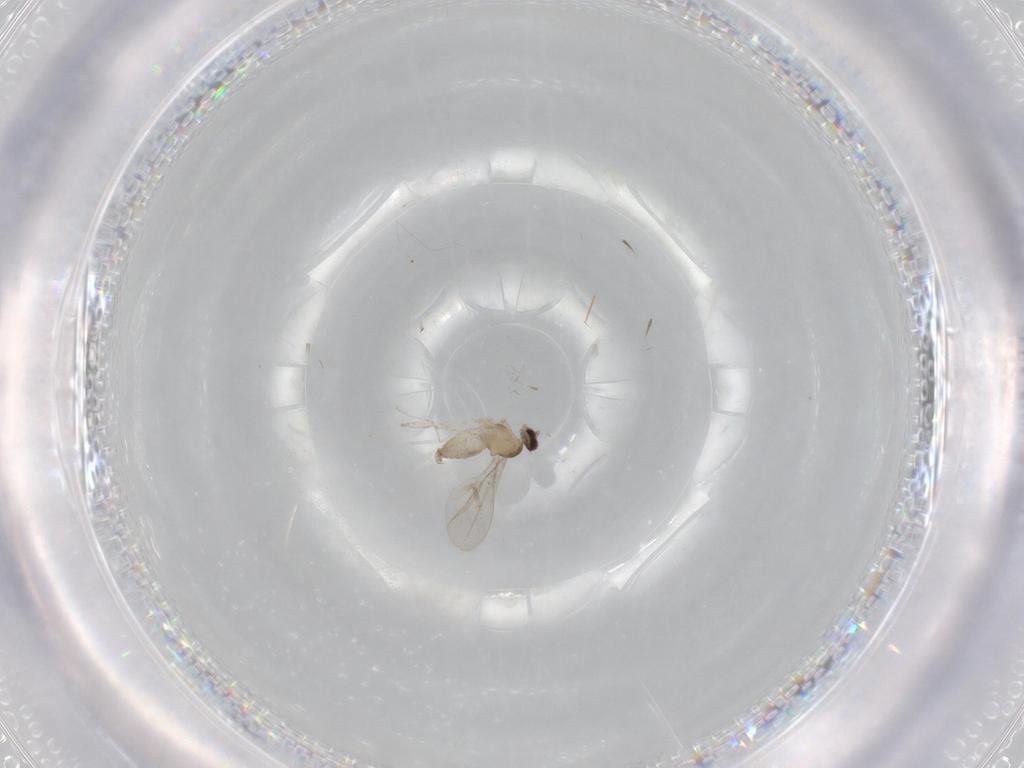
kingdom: Animalia
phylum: Arthropoda
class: Insecta
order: Diptera
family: Cecidomyiidae
